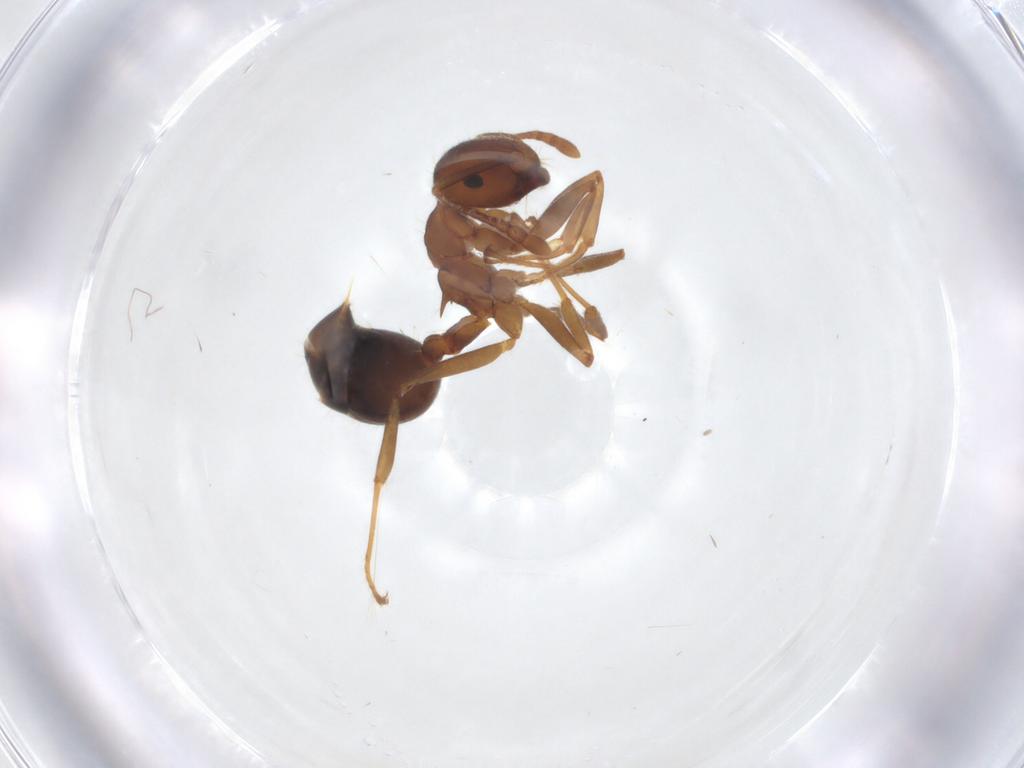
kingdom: Animalia
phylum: Arthropoda
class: Insecta
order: Hymenoptera
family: Formicidae
